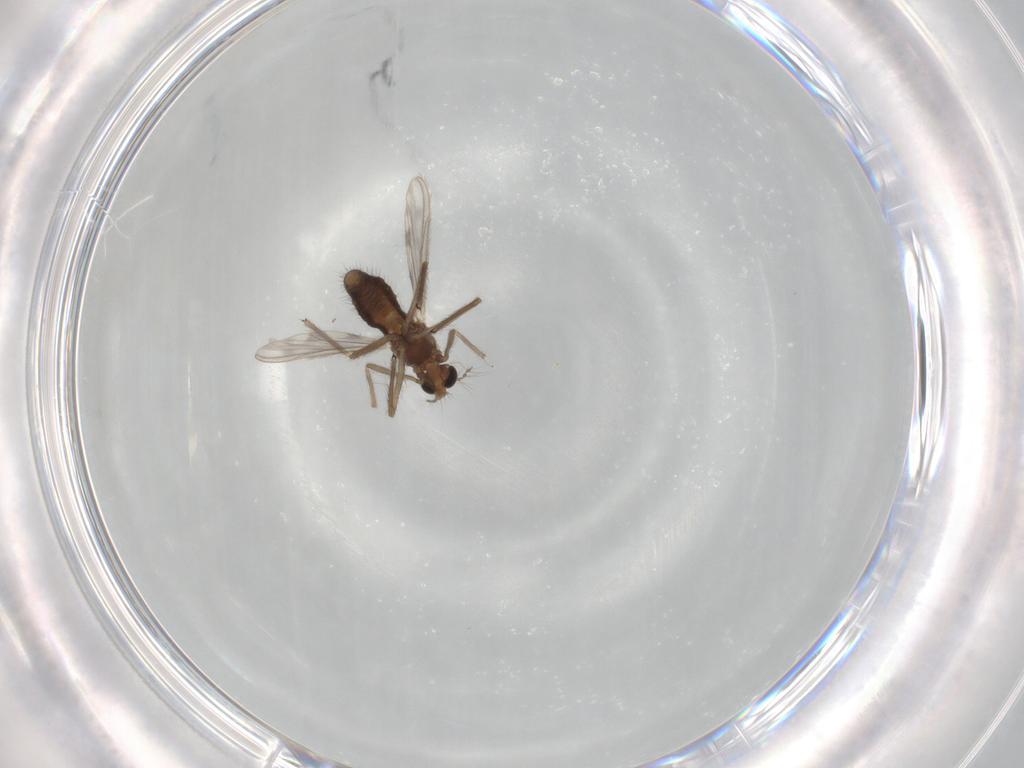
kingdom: Animalia
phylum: Arthropoda
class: Insecta
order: Diptera
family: Chironomidae
